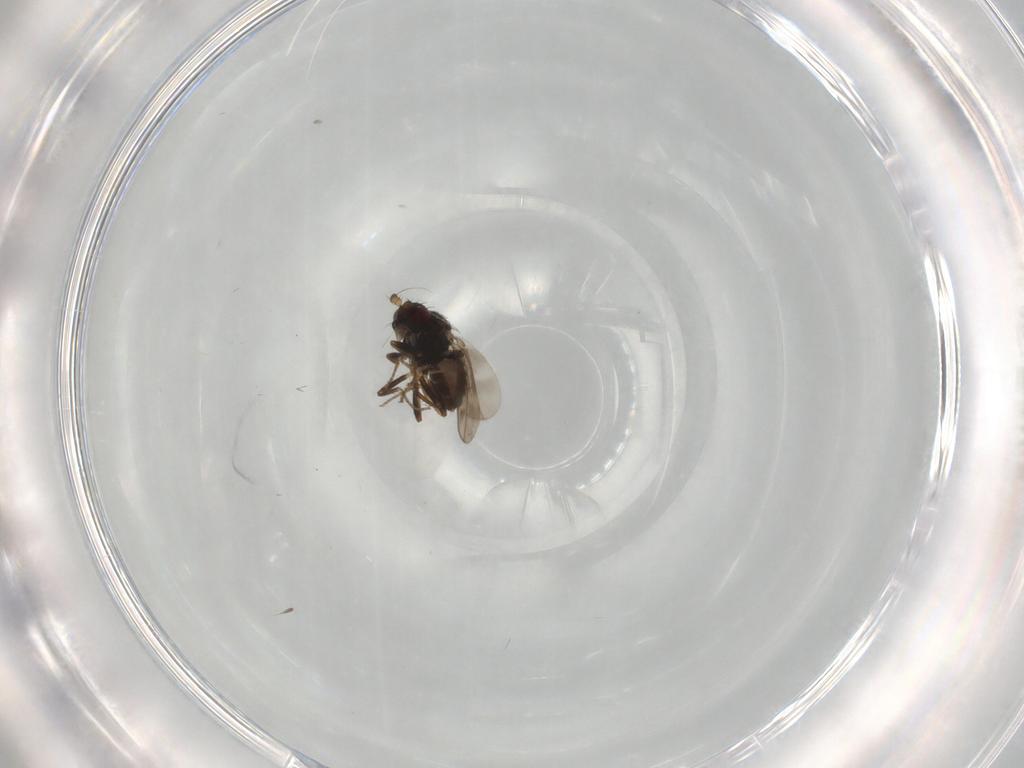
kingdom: Animalia
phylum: Arthropoda
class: Insecta
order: Diptera
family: Sphaeroceridae
